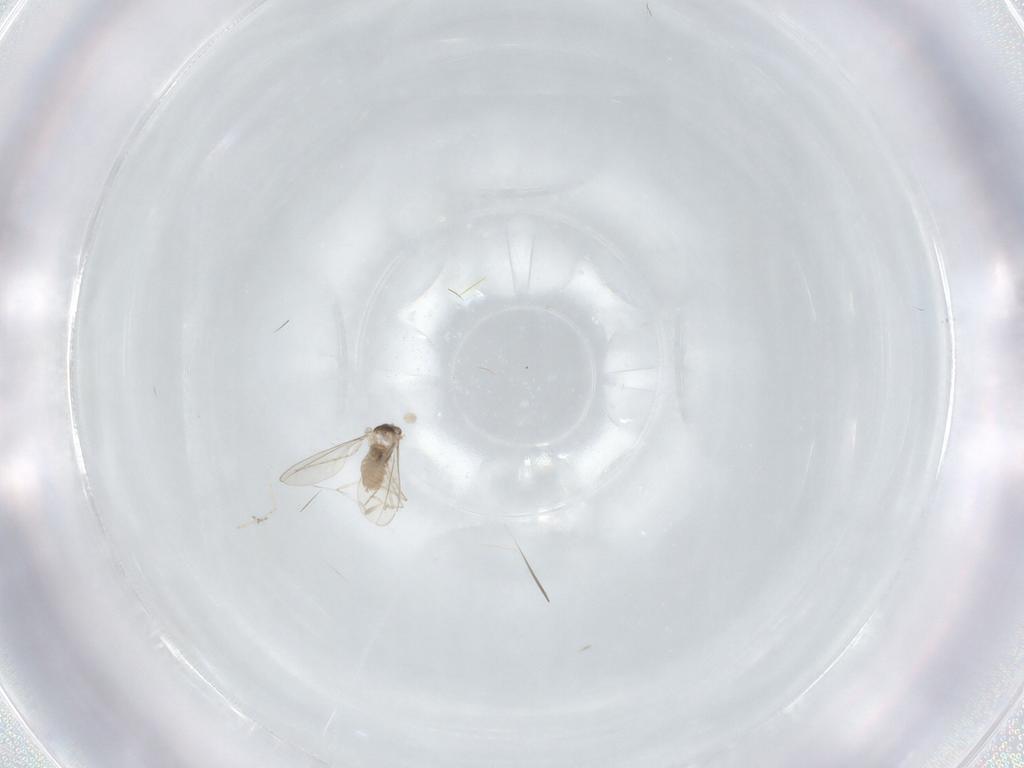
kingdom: Animalia
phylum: Arthropoda
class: Insecta
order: Diptera
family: Cecidomyiidae
